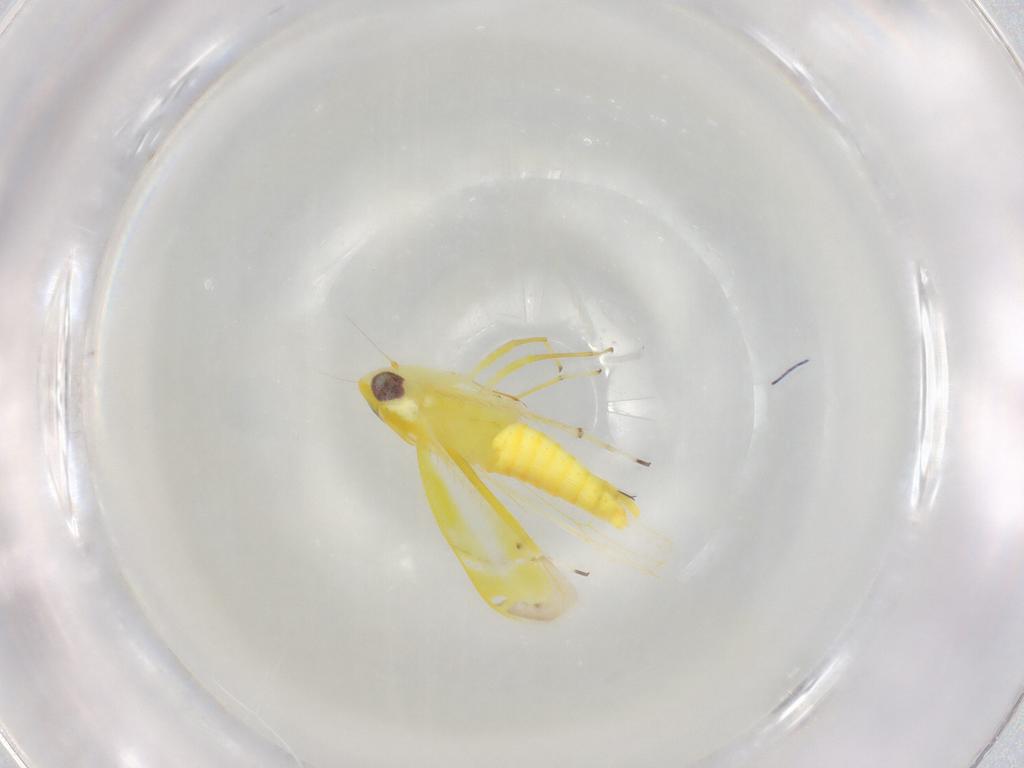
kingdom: Animalia
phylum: Arthropoda
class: Insecta
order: Hemiptera
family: Cicadellidae
